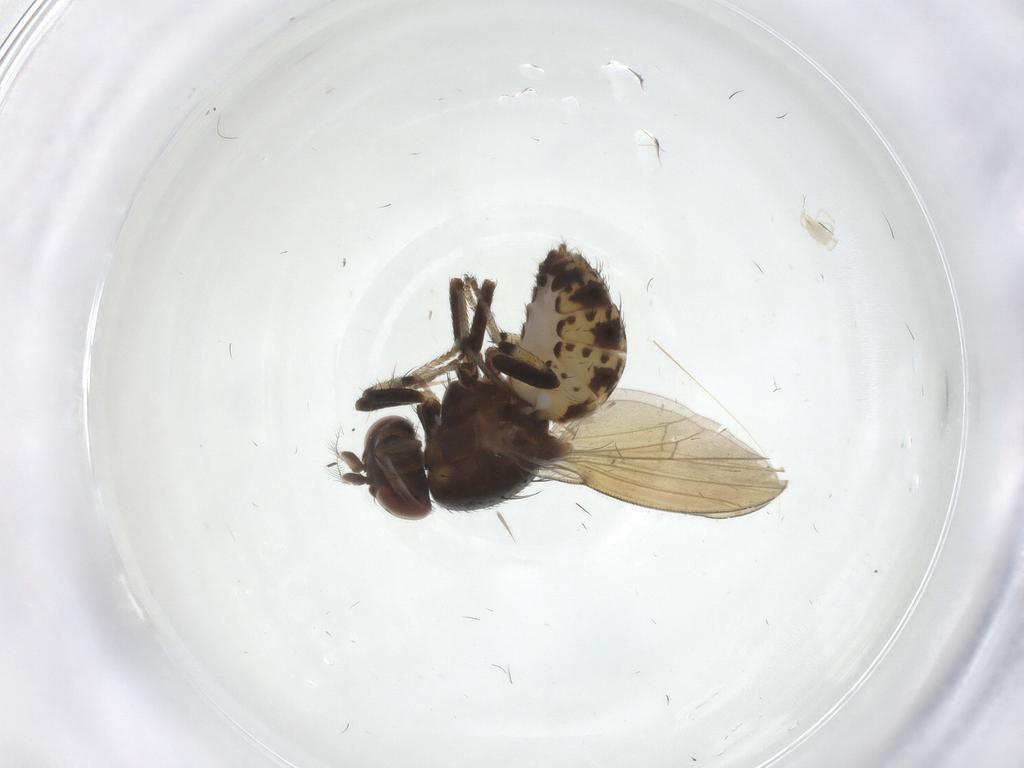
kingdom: Animalia
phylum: Arthropoda
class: Insecta
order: Diptera
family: Sciaridae
